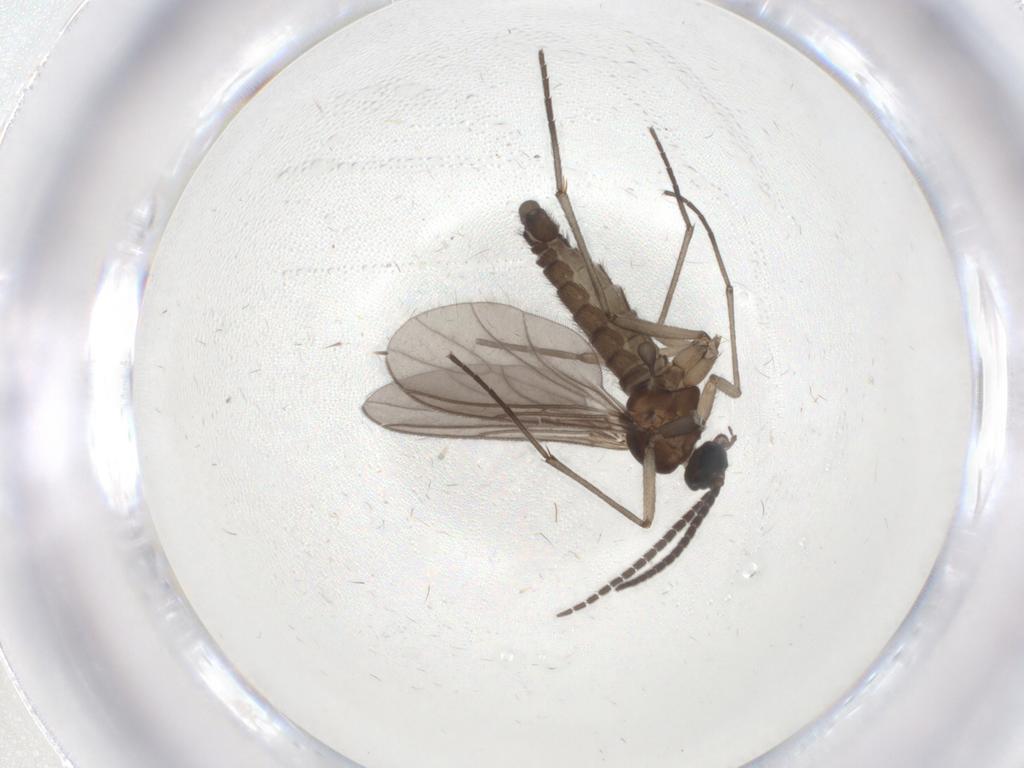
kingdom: Animalia
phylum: Arthropoda
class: Insecta
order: Diptera
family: Sciaridae
